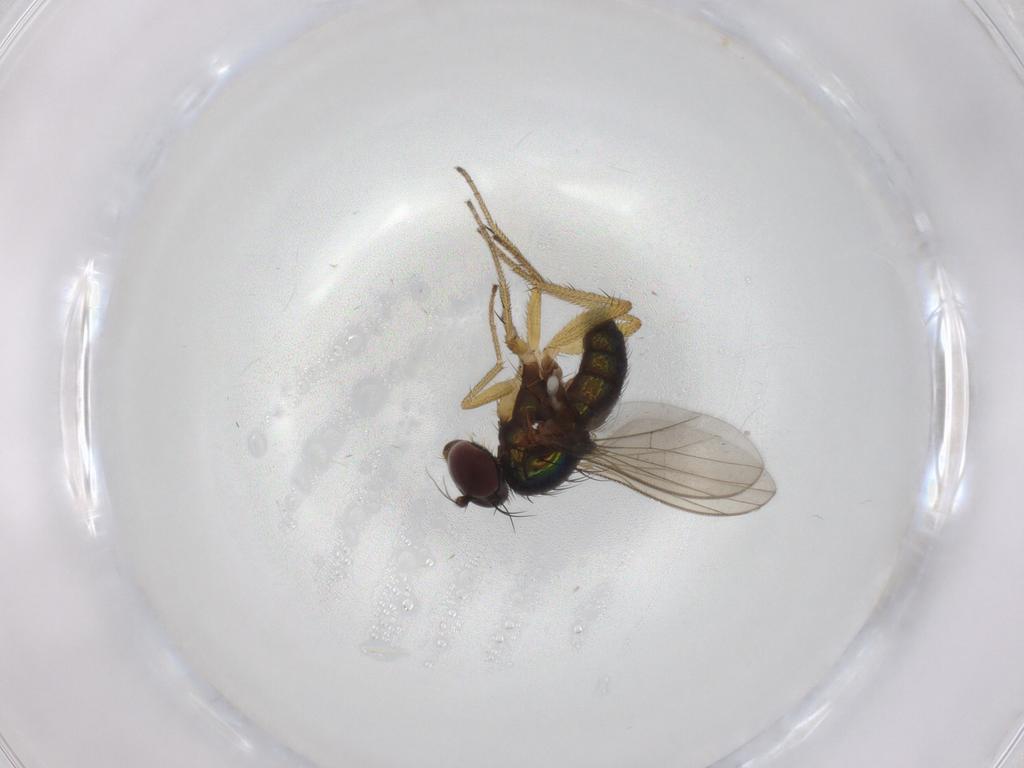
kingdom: Animalia
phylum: Arthropoda
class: Insecta
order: Diptera
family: Dolichopodidae
